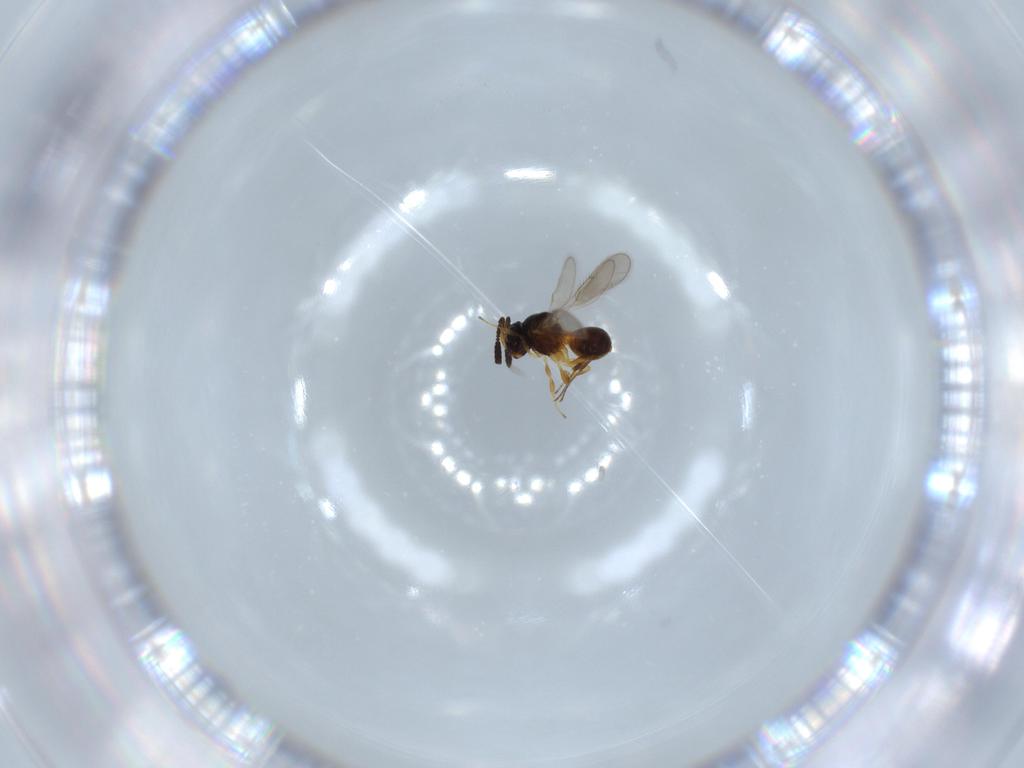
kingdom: Animalia
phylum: Arthropoda
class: Insecta
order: Hymenoptera
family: Scelionidae
